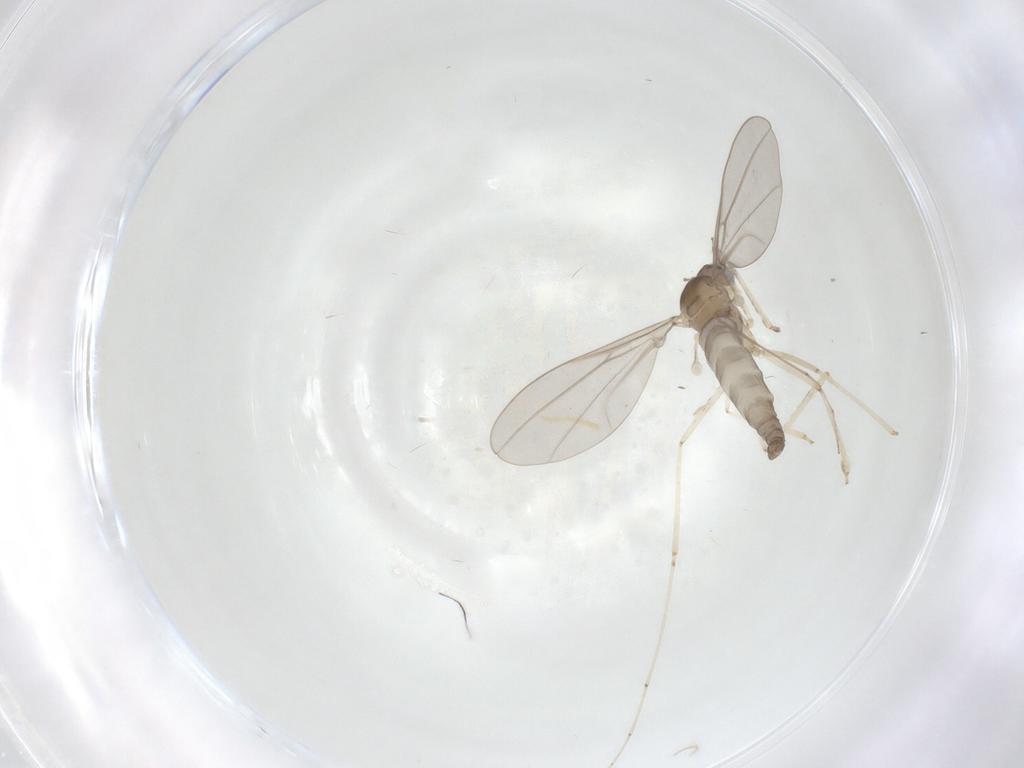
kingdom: Animalia
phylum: Arthropoda
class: Insecta
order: Diptera
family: Cecidomyiidae
